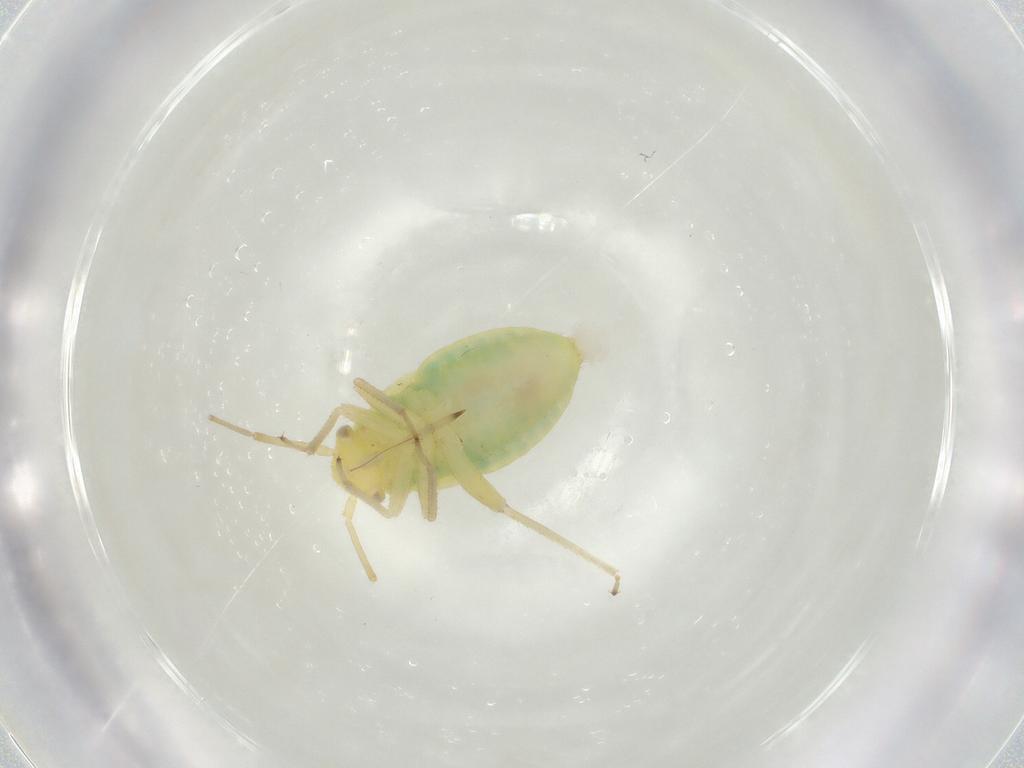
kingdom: Animalia
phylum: Arthropoda
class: Insecta
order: Hemiptera
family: Miridae
